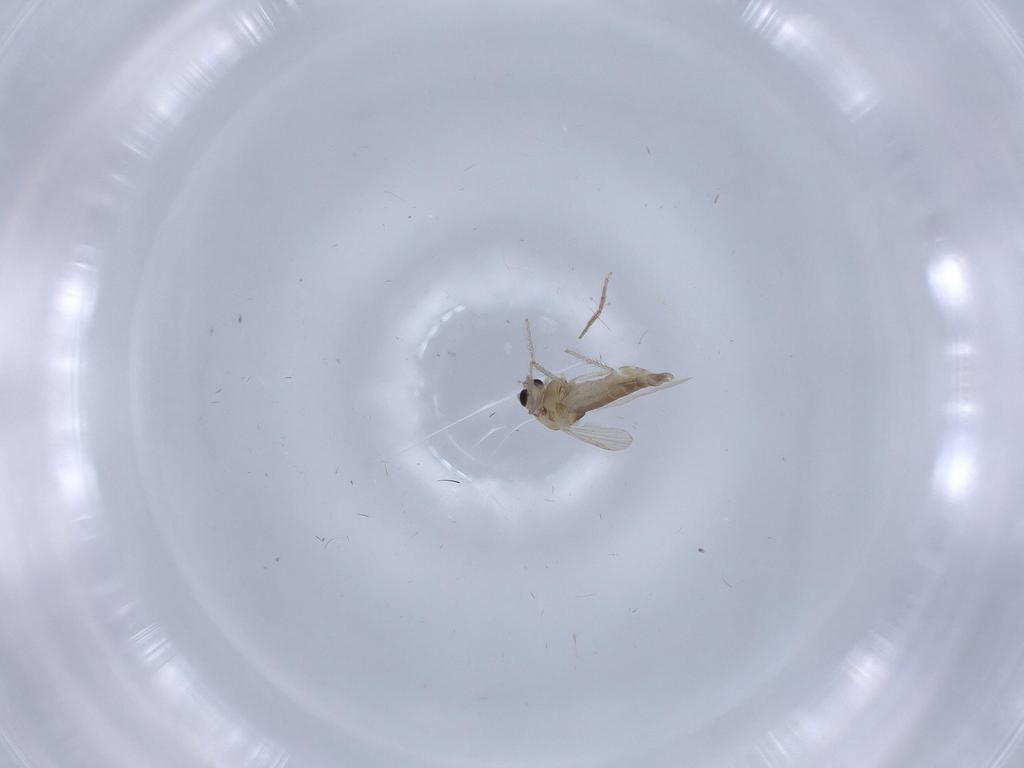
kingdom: Animalia
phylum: Arthropoda
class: Insecta
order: Diptera
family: Chironomidae
